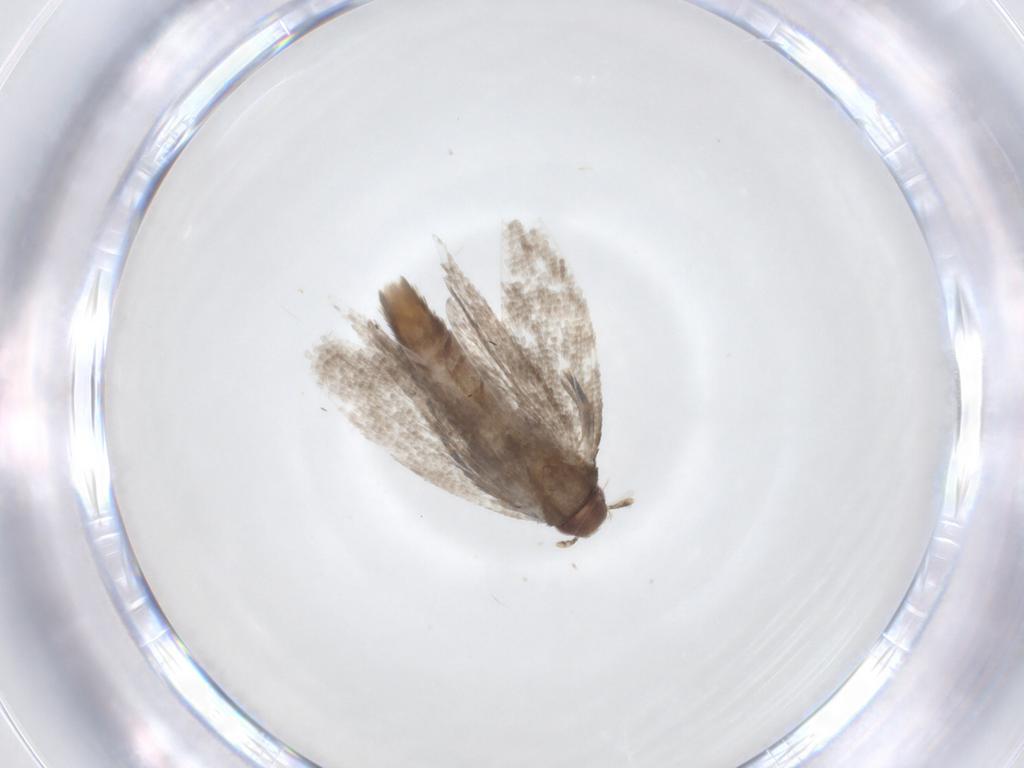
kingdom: Animalia
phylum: Arthropoda
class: Insecta
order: Lepidoptera
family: Gelechiidae
